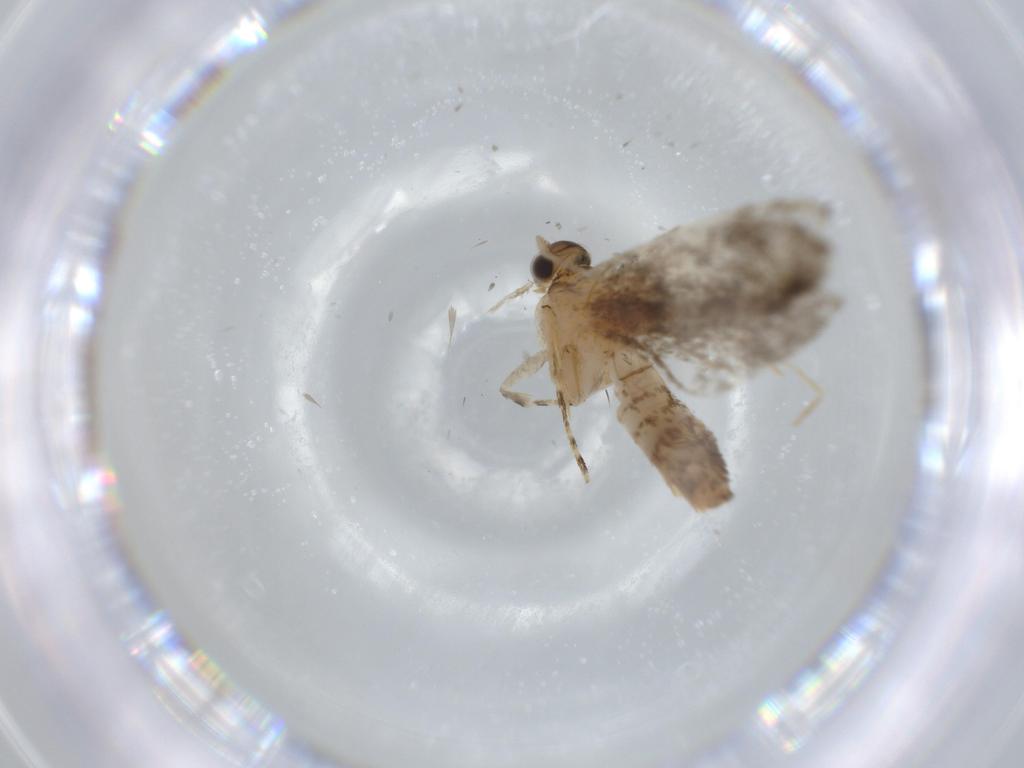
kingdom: Animalia
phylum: Arthropoda
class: Insecta
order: Lepidoptera
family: Tineidae
